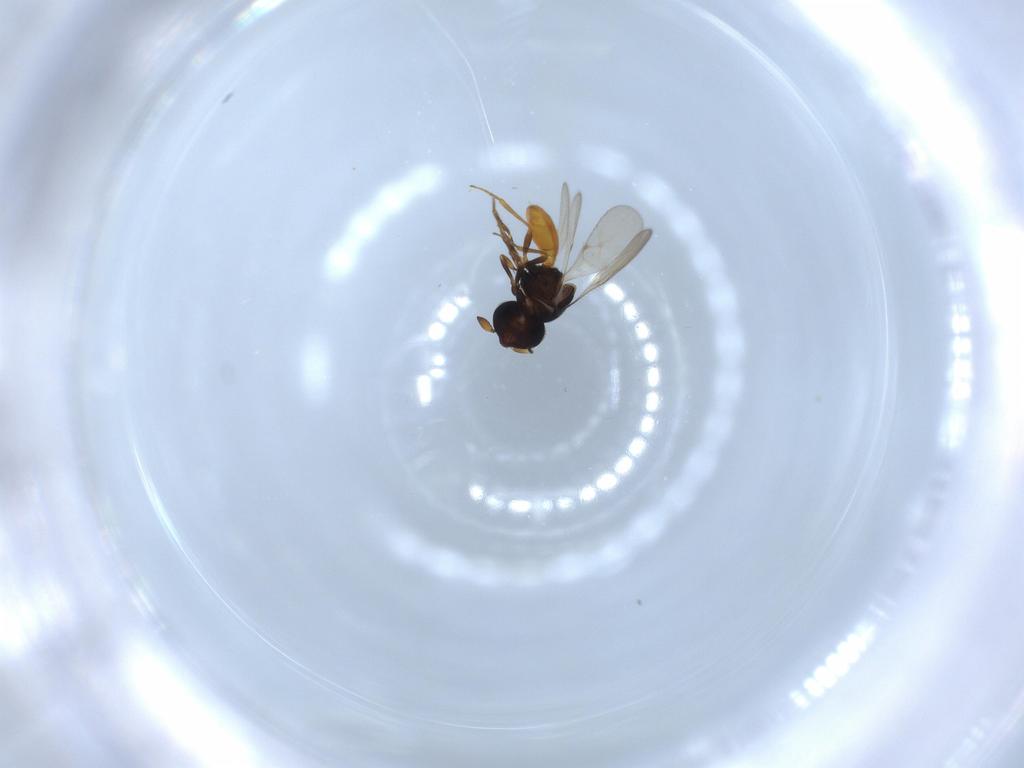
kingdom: Animalia
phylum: Arthropoda
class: Insecta
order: Hymenoptera
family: Scelionidae
